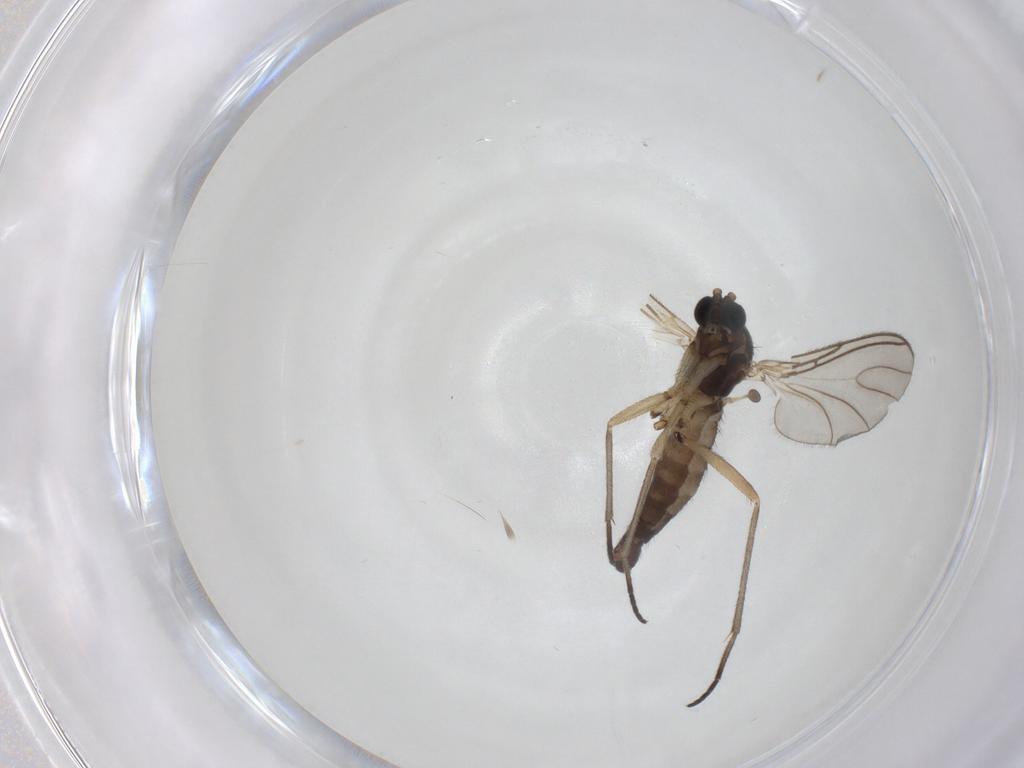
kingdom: Animalia
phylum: Arthropoda
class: Insecta
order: Diptera
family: Sciaridae
